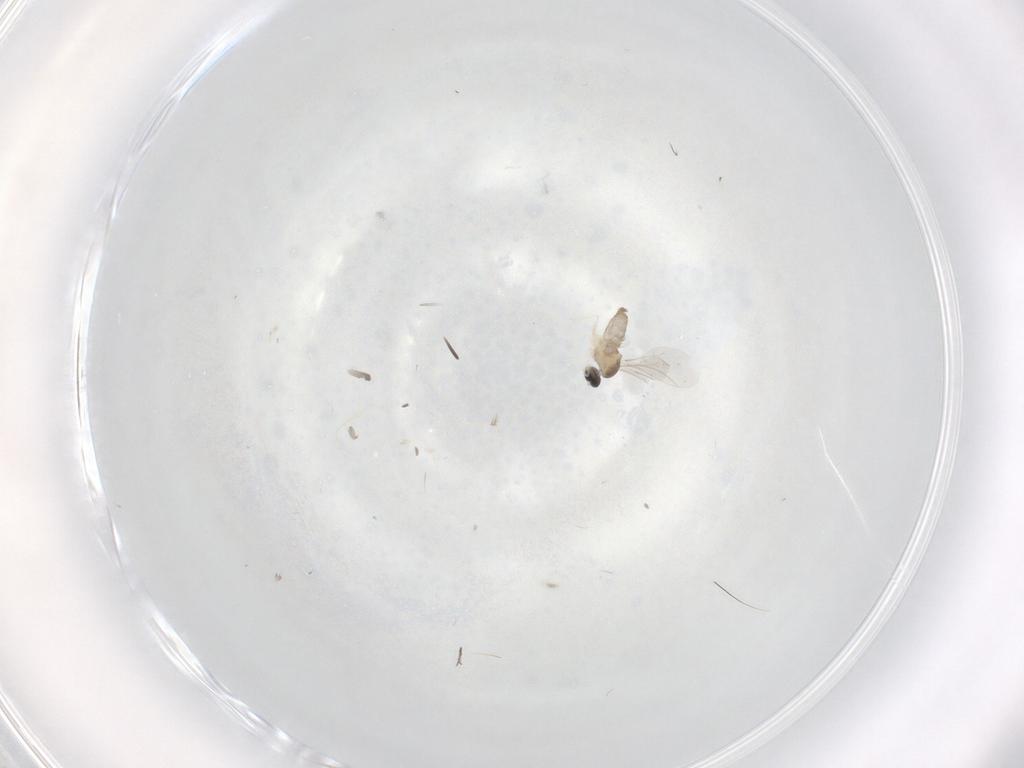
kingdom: Animalia
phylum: Arthropoda
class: Insecta
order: Diptera
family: Cecidomyiidae
